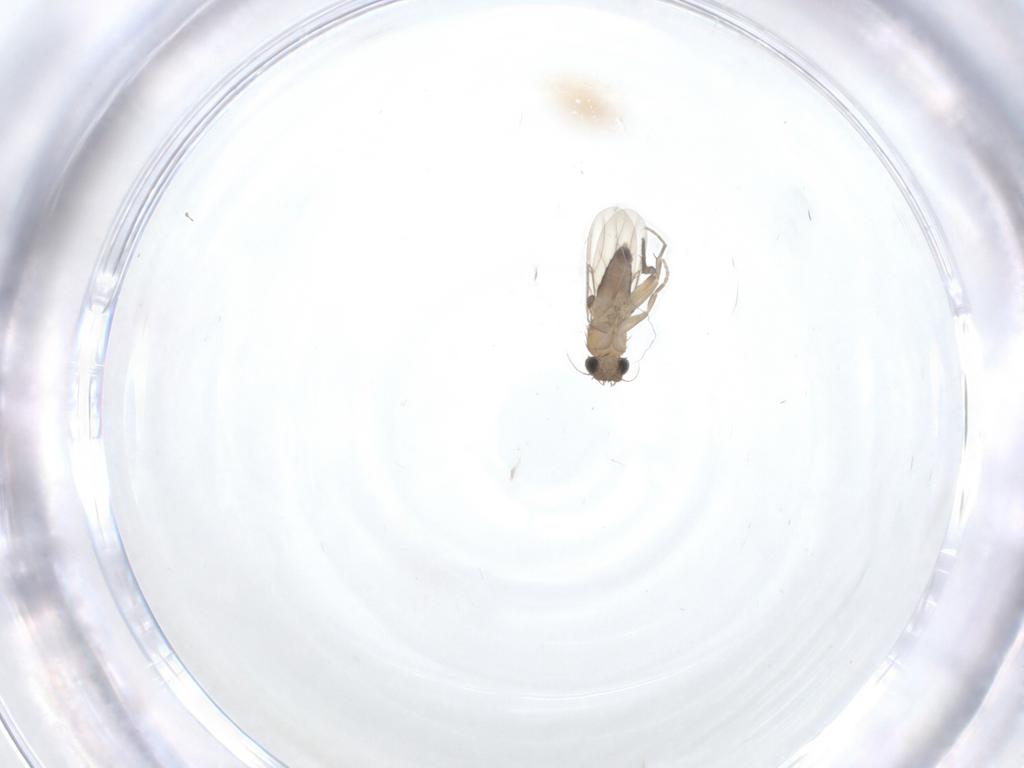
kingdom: Animalia
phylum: Arthropoda
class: Insecta
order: Diptera
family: Phoridae
